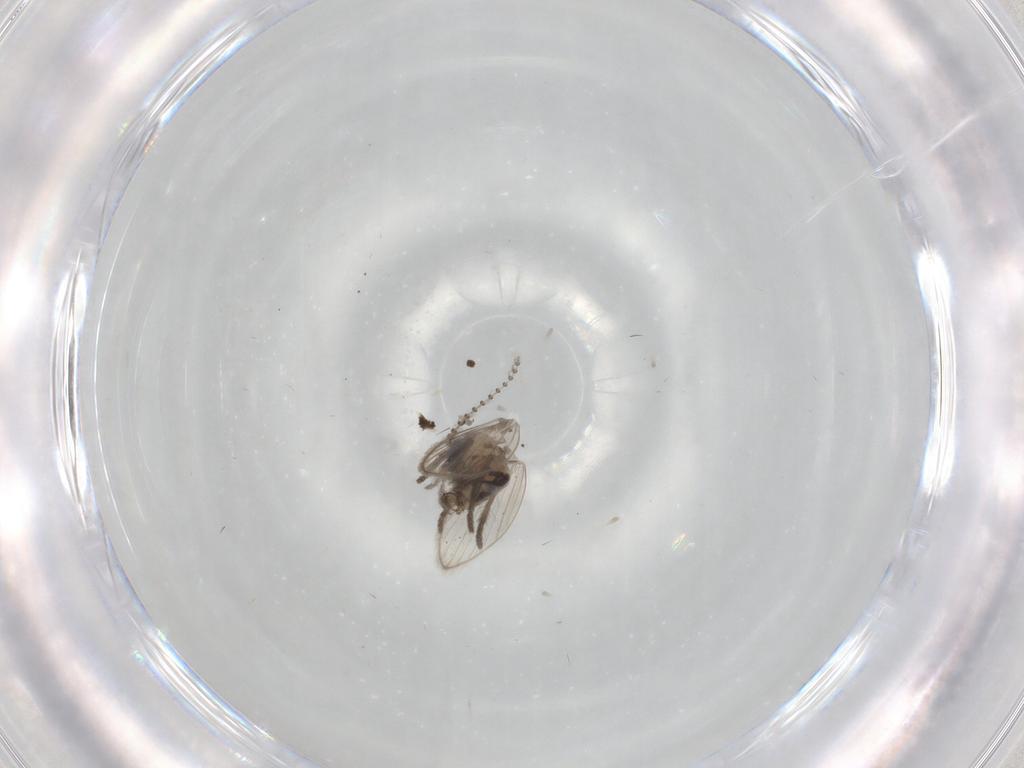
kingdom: Animalia
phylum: Arthropoda
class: Insecta
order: Diptera
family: Psychodidae
